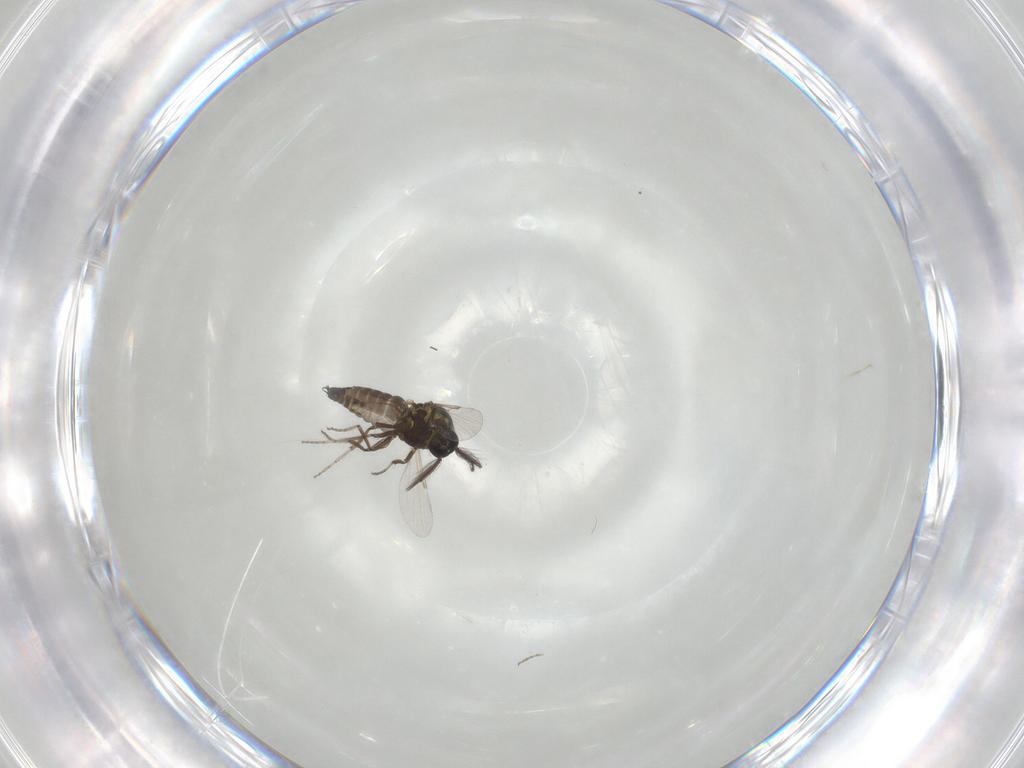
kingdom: Animalia
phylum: Arthropoda
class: Insecta
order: Diptera
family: Ceratopogonidae
